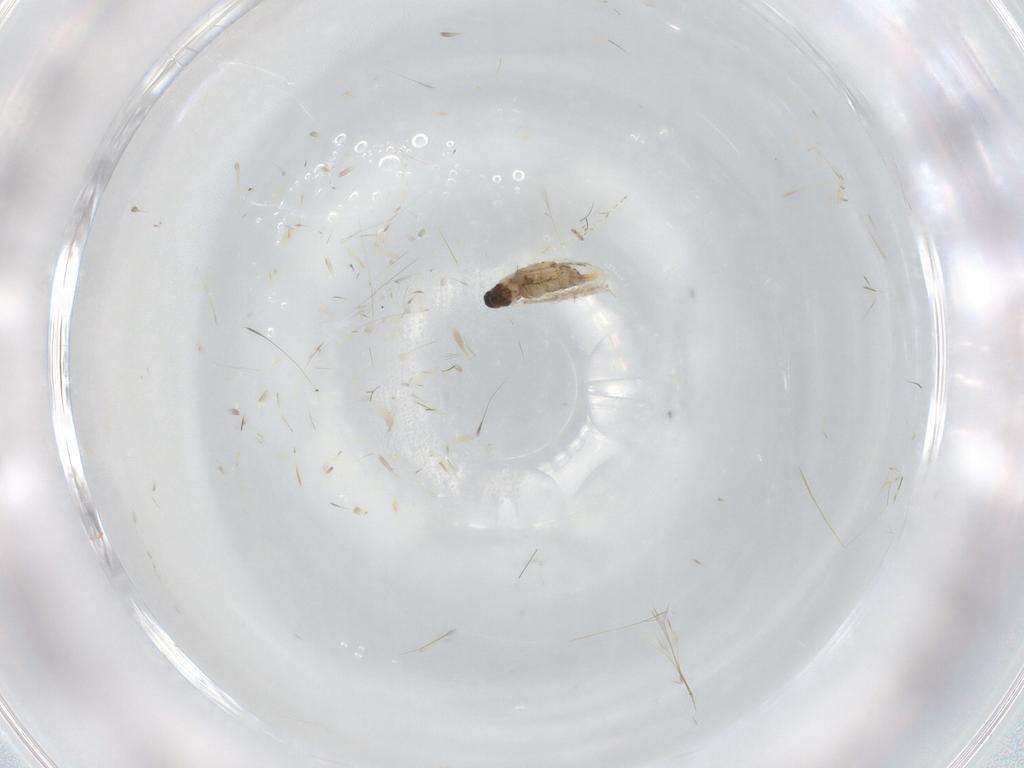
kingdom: Animalia
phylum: Arthropoda
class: Insecta
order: Diptera
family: Cecidomyiidae
